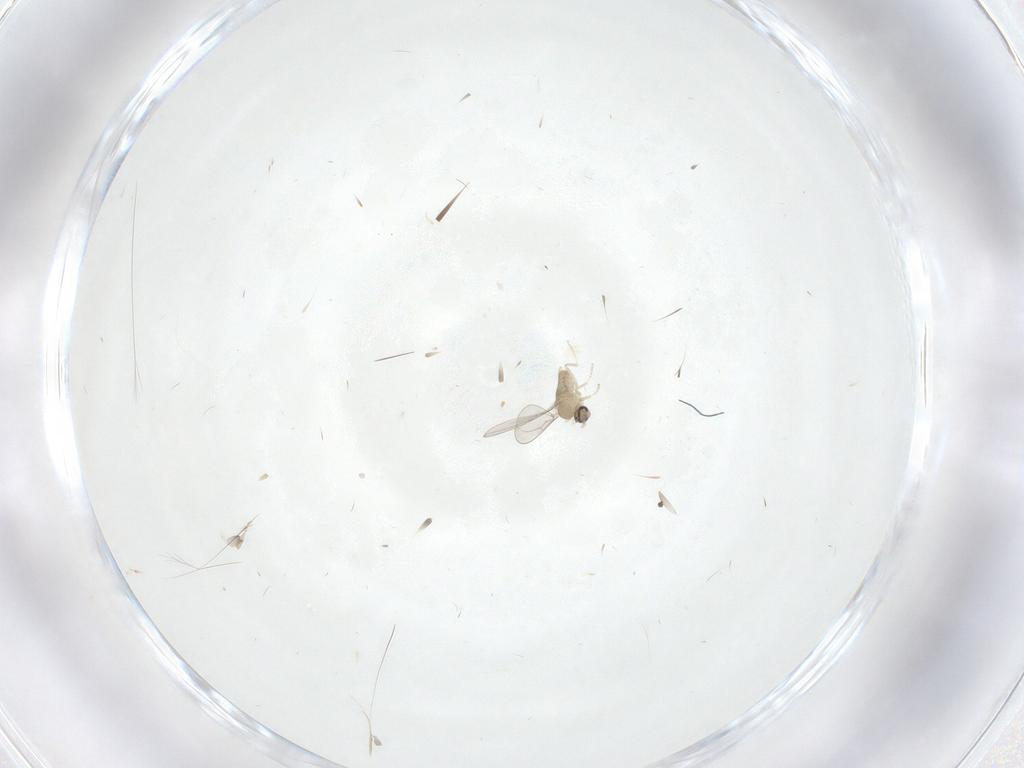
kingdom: Animalia
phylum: Arthropoda
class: Insecta
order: Diptera
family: Cecidomyiidae
